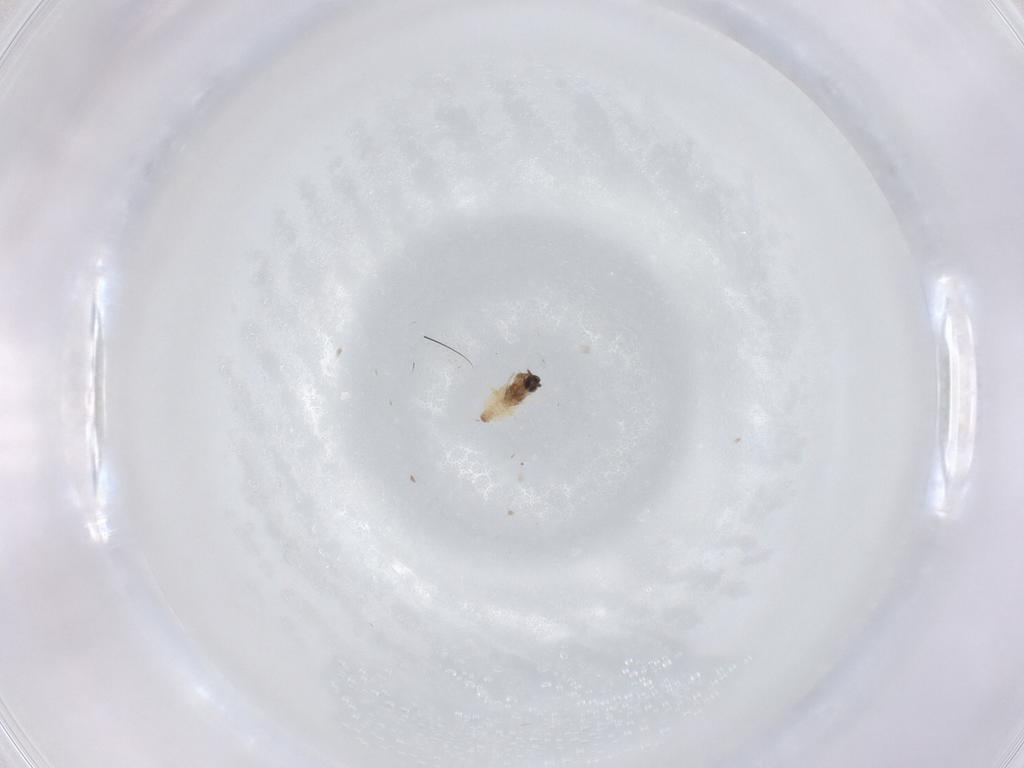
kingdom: Animalia
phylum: Arthropoda
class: Insecta
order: Diptera
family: Cecidomyiidae
